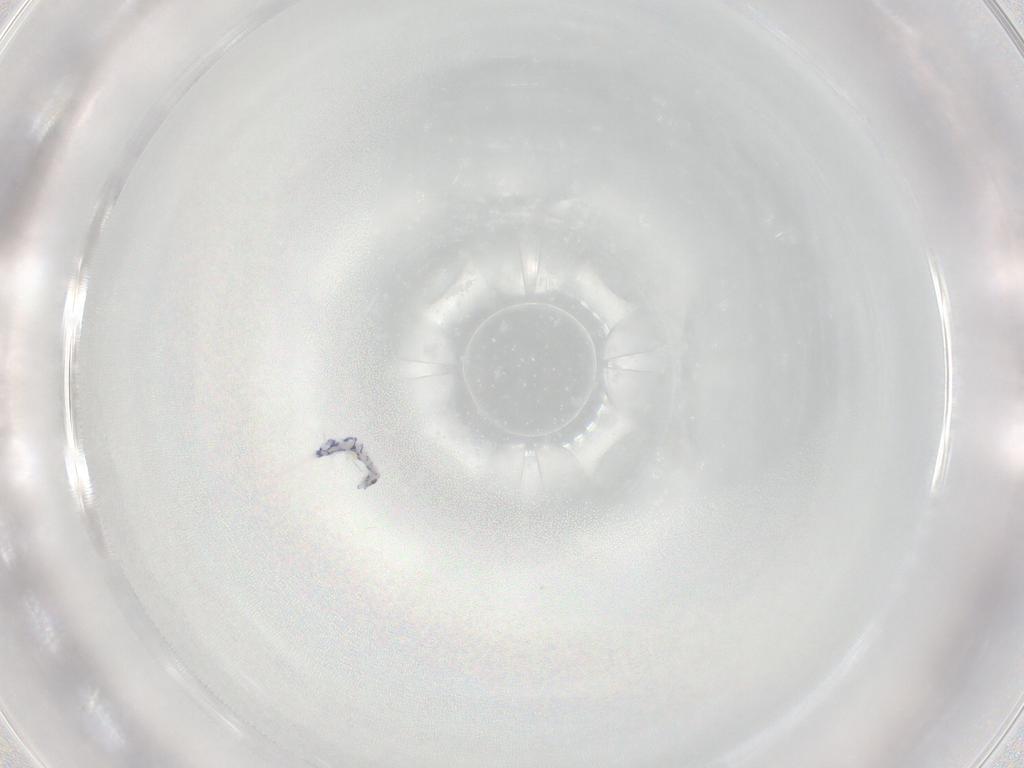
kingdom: Animalia
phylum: Arthropoda
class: Collembola
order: Entomobryomorpha
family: Entomobryidae
